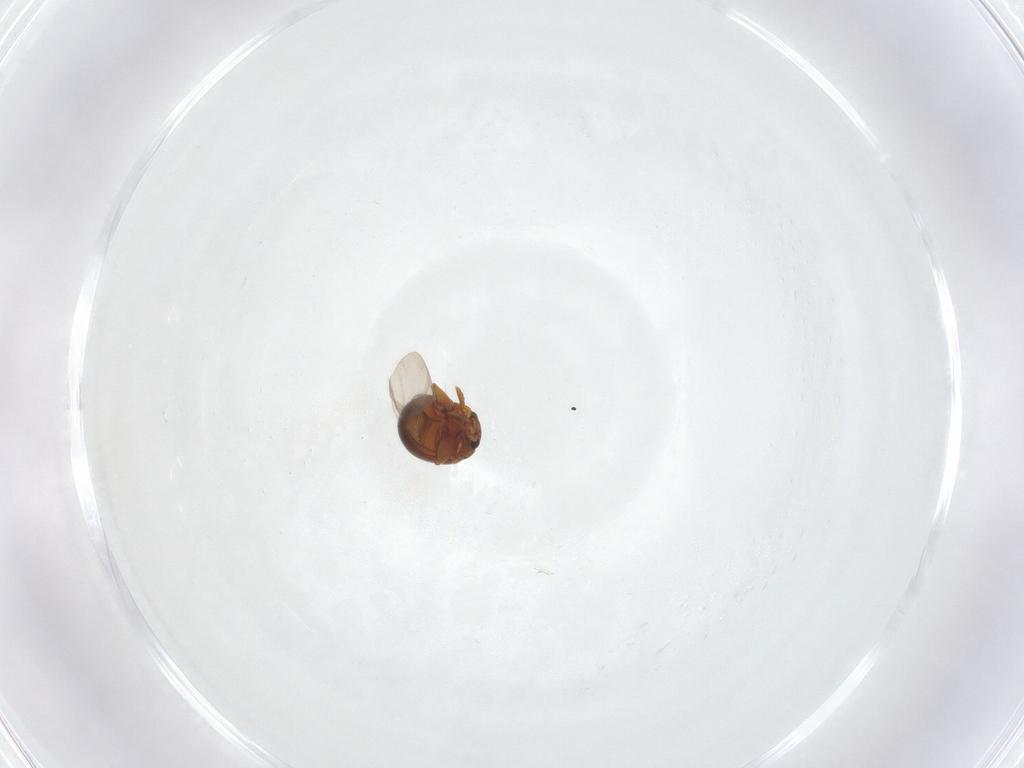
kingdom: Animalia
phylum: Arthropoda
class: Insecta
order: Coleoptera
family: Chrysomelidae
